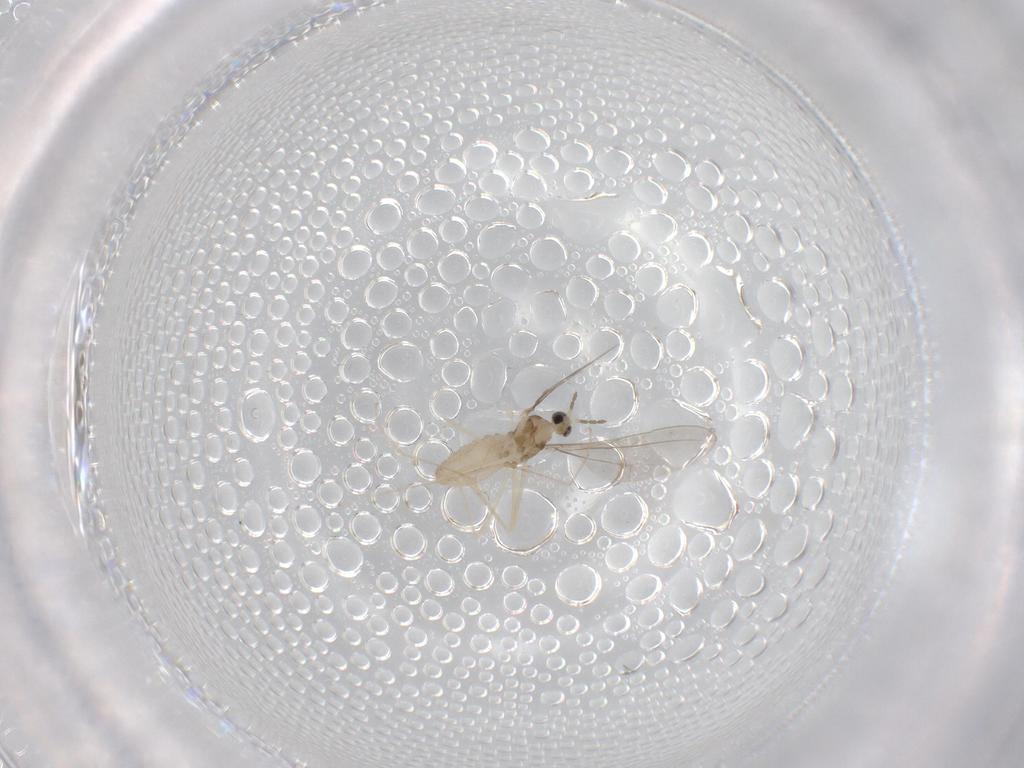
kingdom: Animalia
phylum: Arthropoda
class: Insecta
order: Diptera
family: Cecidomyiidae
